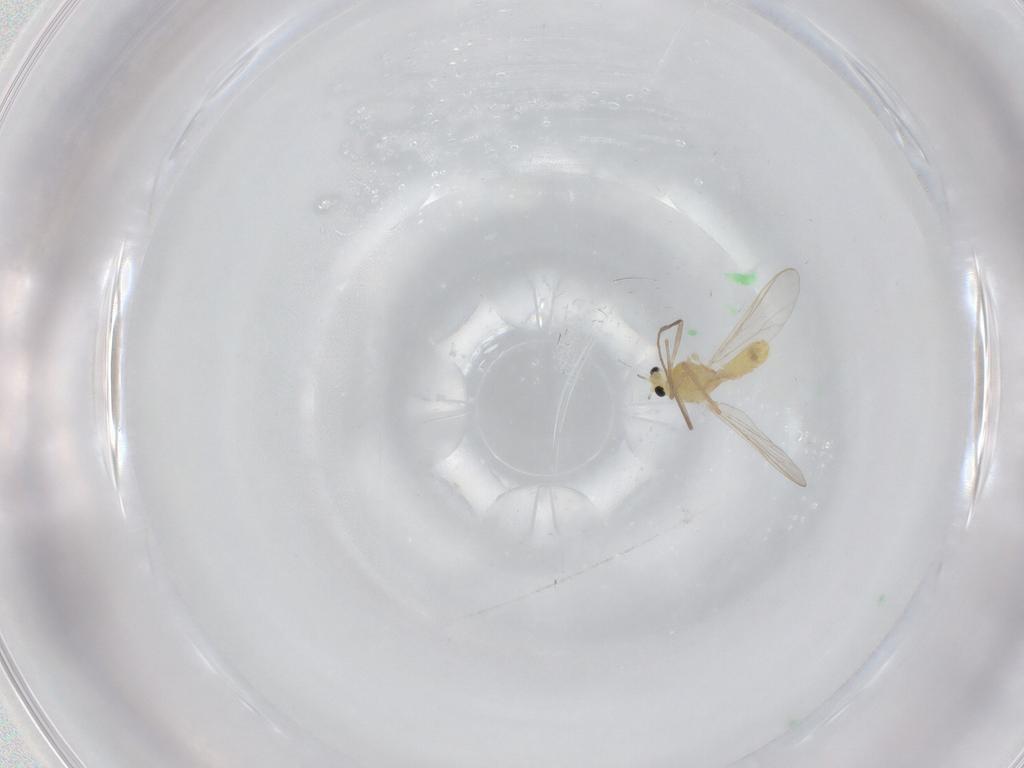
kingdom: Animalia
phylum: Arthropoda
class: Insecta
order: Diptera
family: Chironomidae
